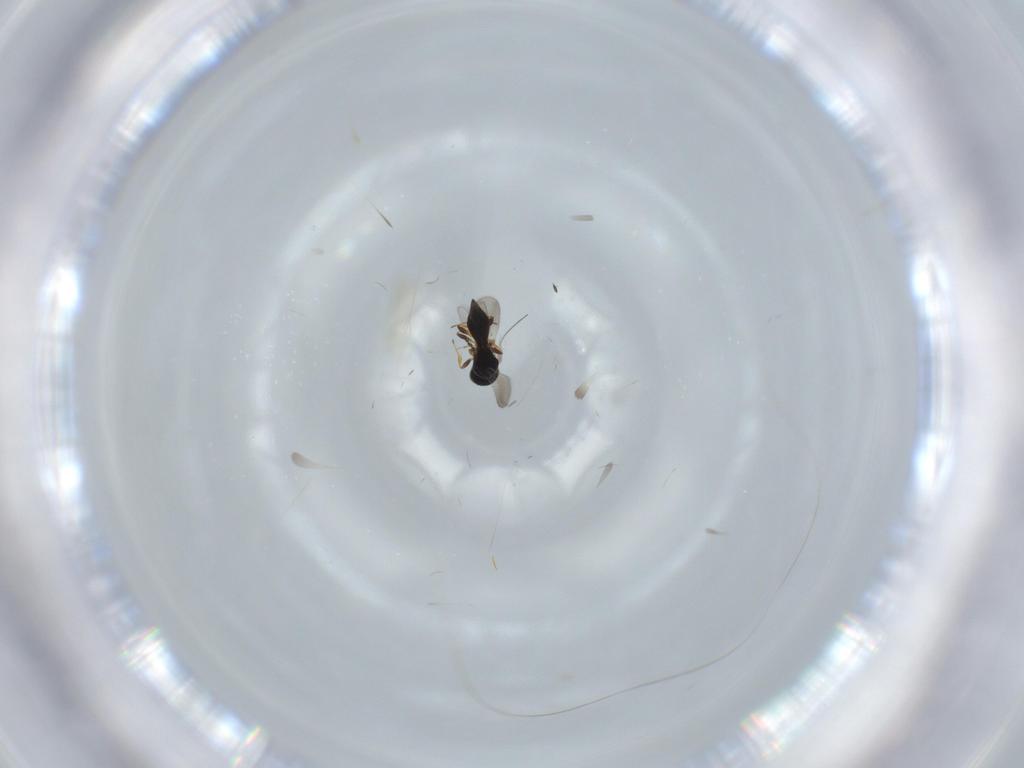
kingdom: Animalia
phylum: Arthropoda
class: Insecta
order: Hymenoptera
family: Platygastridae
